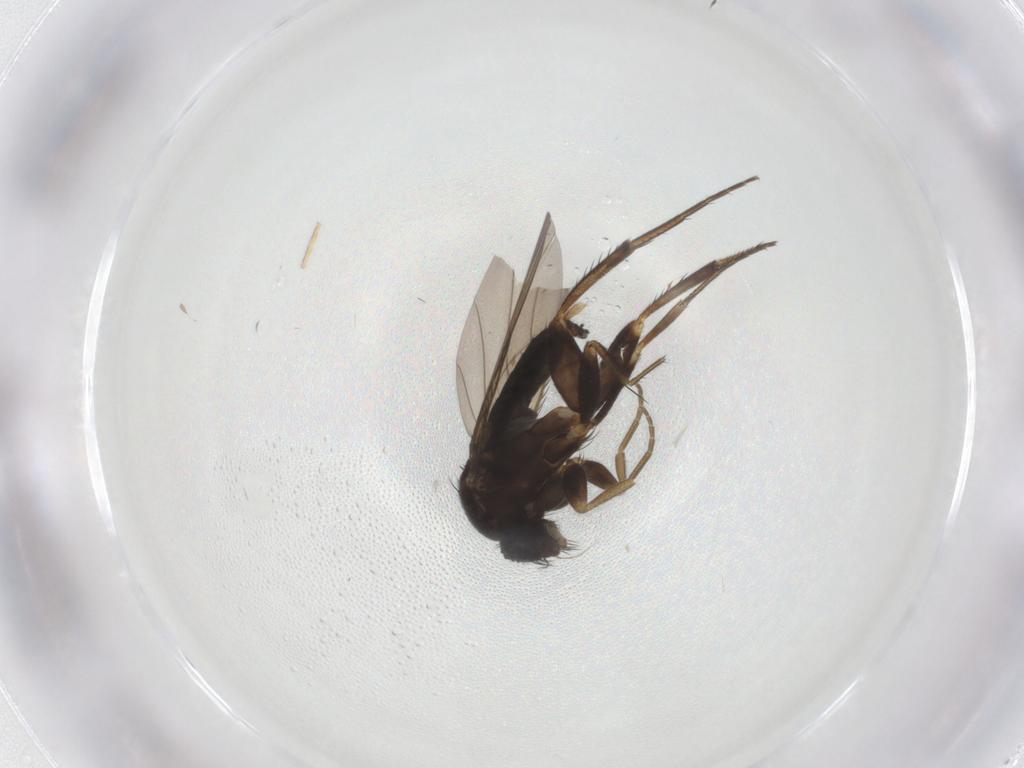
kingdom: Animalia
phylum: Arthropoda
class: Insecta
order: Diptera
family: Phoridae
